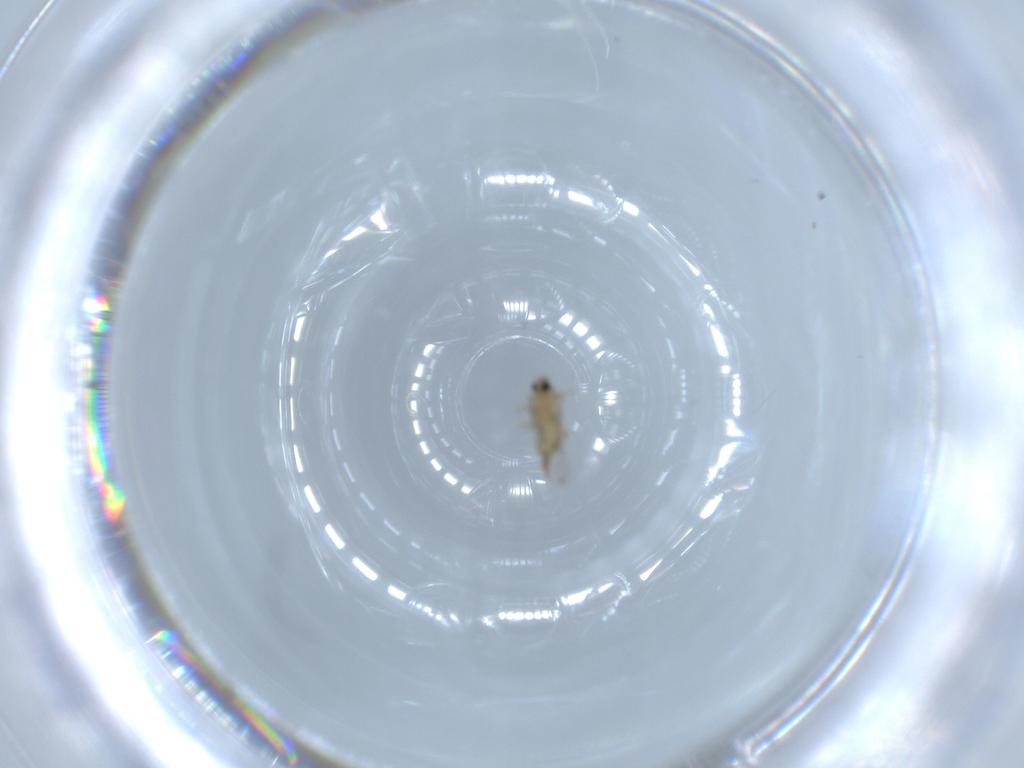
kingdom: Animalia
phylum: Arthropoda
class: Insecta
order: Diptera
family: Cecidomyiidae
